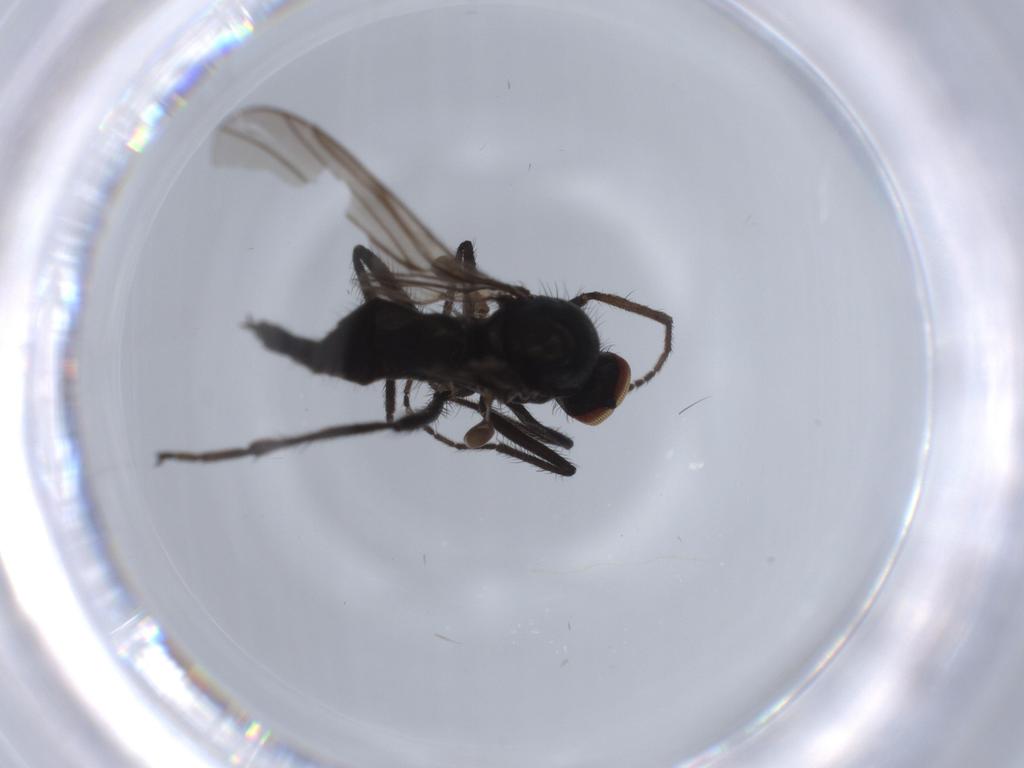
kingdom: Animalia
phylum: Arthropoda
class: Insecta
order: Diptera
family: Hybotidae
